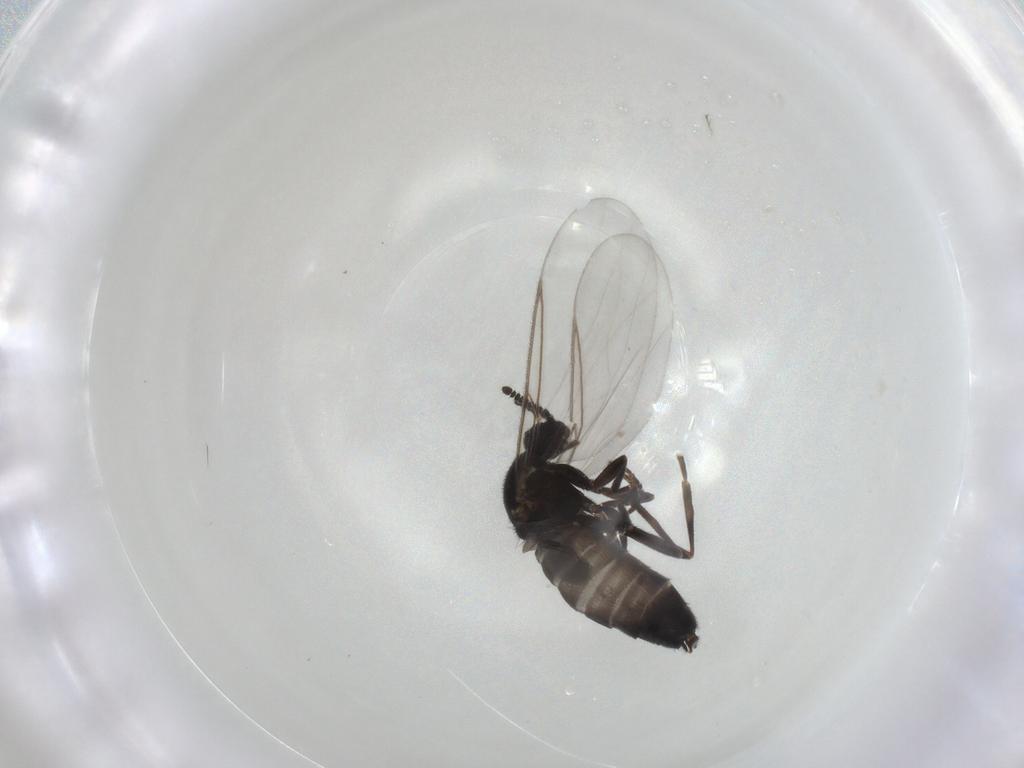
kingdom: Animalia
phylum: Arthropoda
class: Insecta
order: Diptera
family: Scatopsidae
